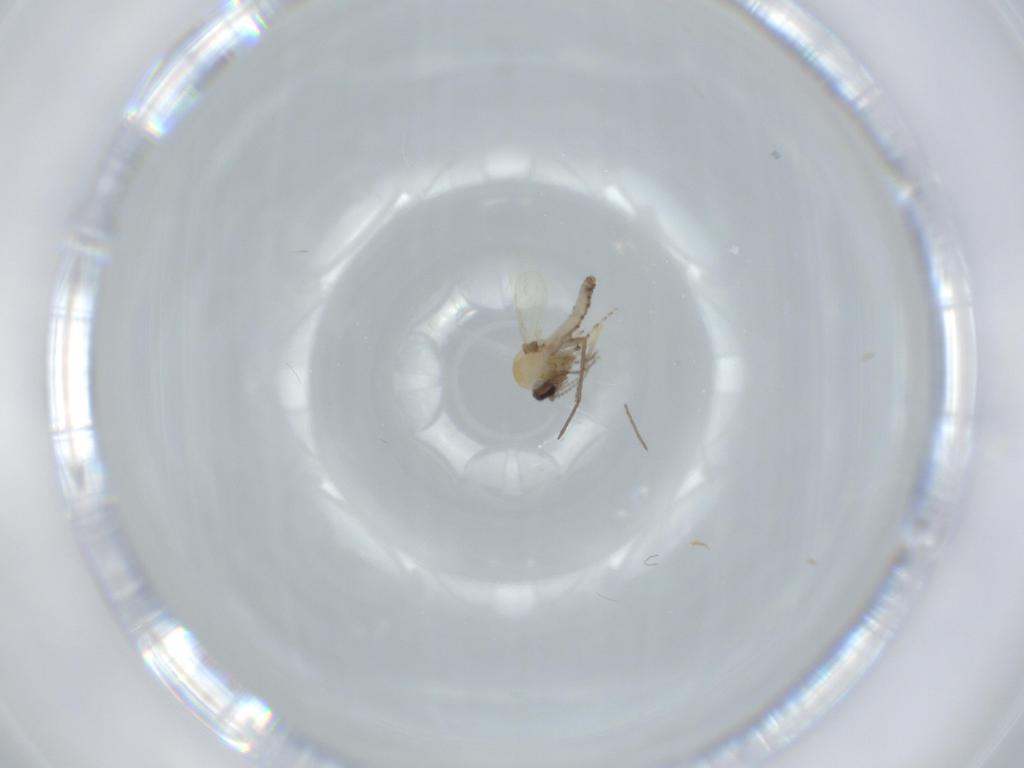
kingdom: Animalia
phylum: Arthropoda
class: Insecta
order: Diptera
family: Ceratopogonidae
